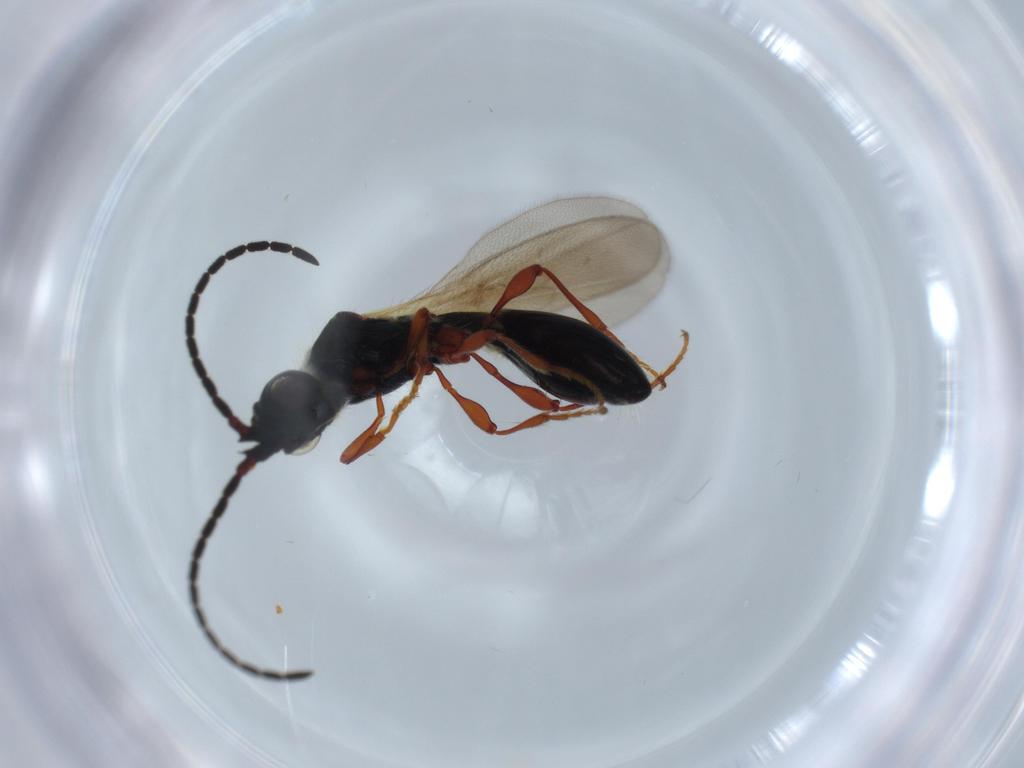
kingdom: Animalia
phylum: Arthropoda
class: Insecta
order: Hymenoptera
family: Diapriidae
